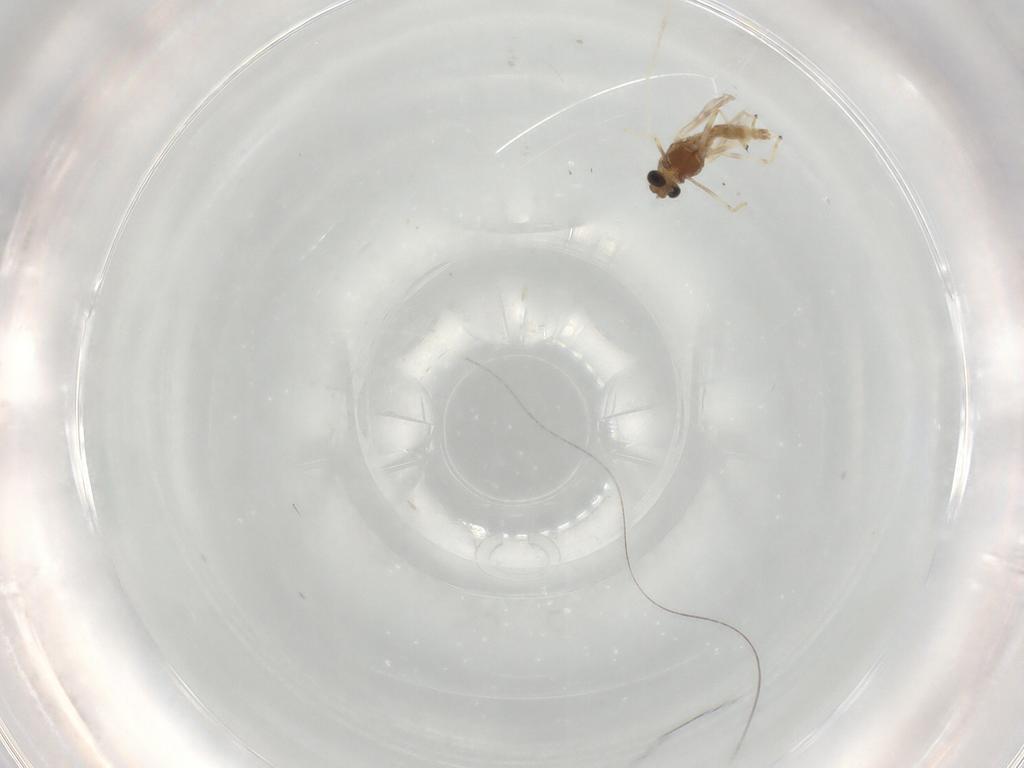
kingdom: Animalia
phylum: Arthropoda
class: Insecta
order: Diptera
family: Chironomidae
